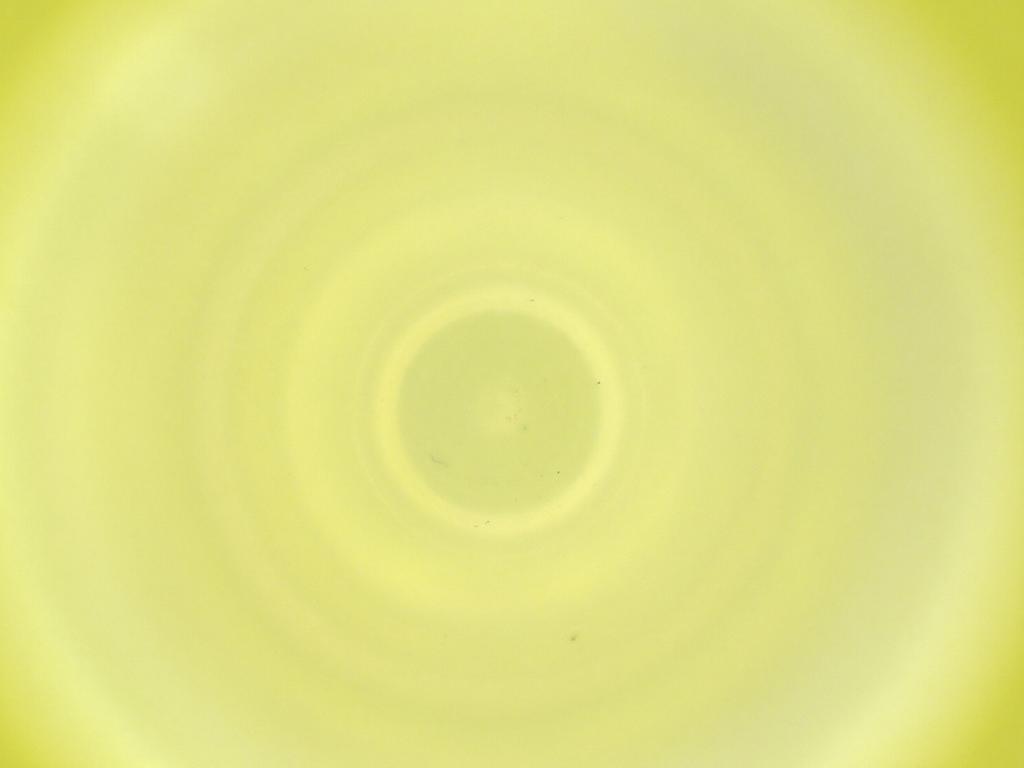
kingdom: Animalia
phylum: Arthropoda
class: Insecta
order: Diptera
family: Cecidomyiidae
